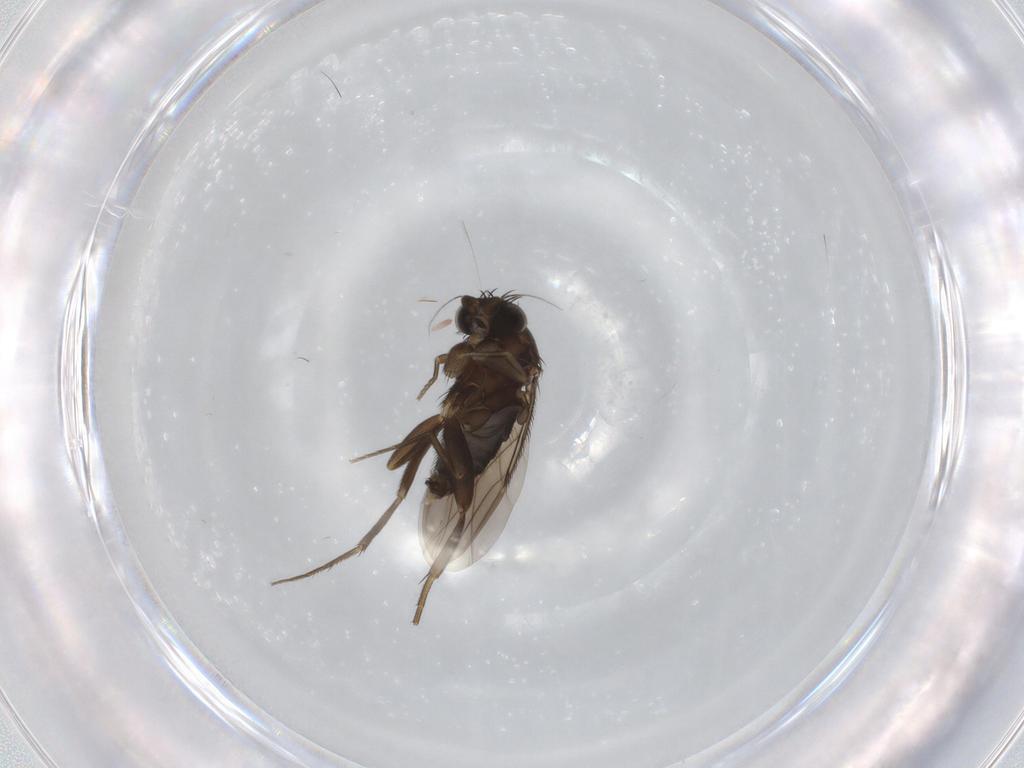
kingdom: Animalia
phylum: Arthropoda
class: Insecta
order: Diptera
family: Phoridae
